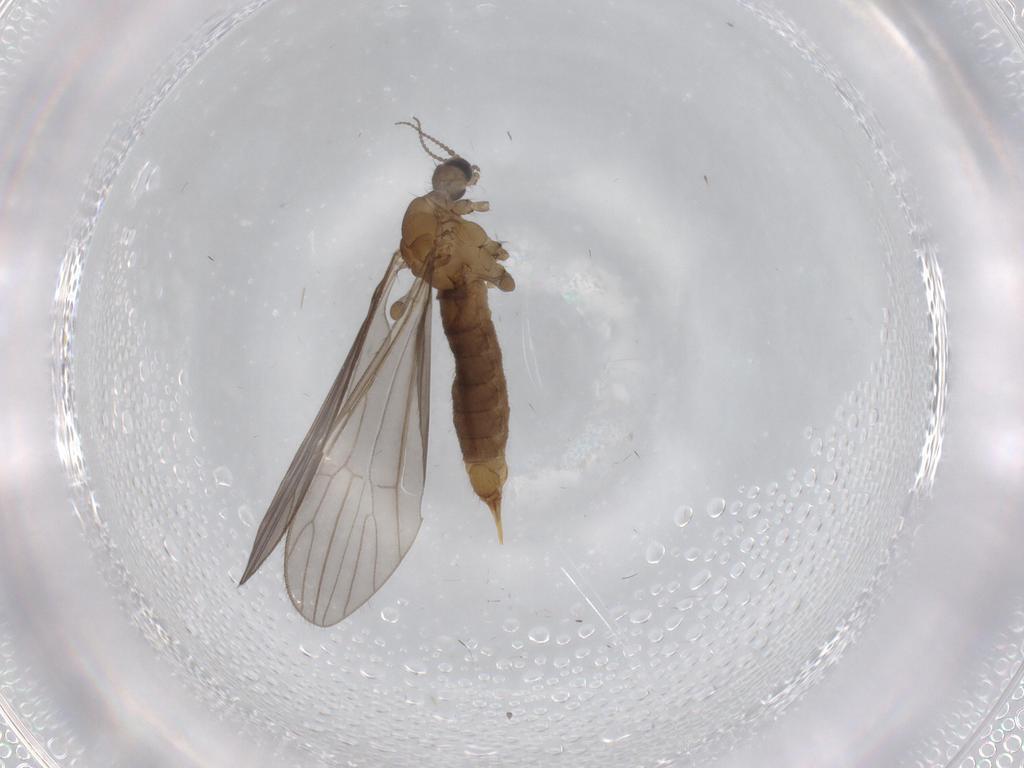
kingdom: Animalia
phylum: Arthropoda
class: Insecta
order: Diptera
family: Limoniidae
